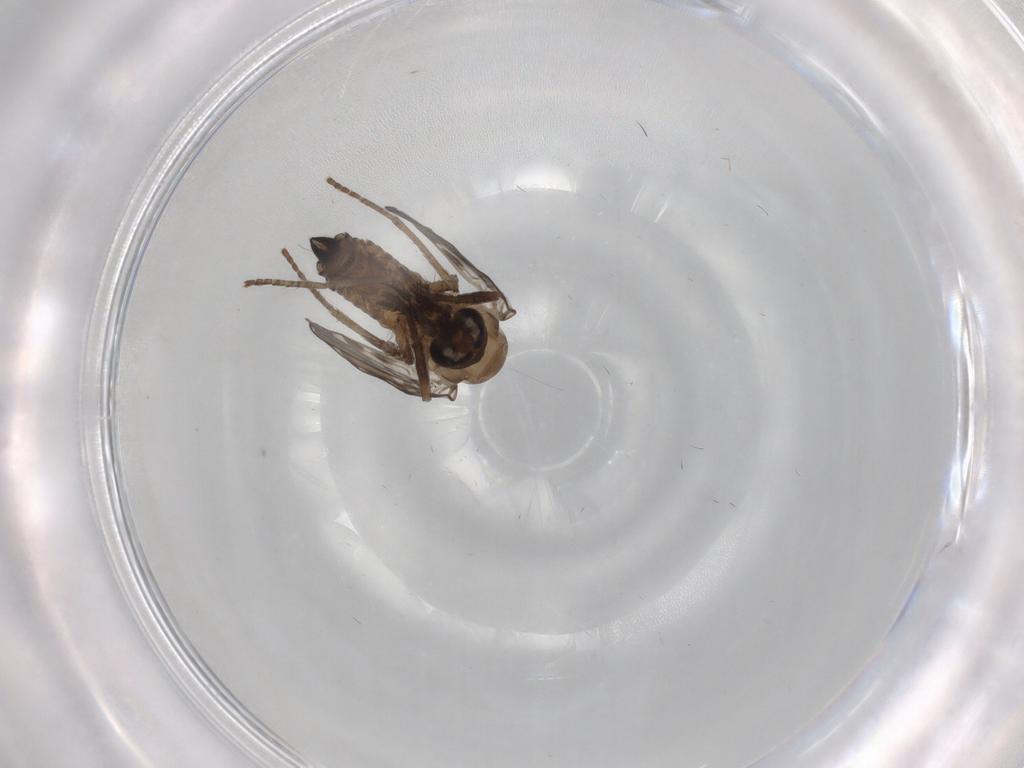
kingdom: Animalia
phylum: Arthropoda
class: Insecta
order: Diptera
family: Psychodidae
